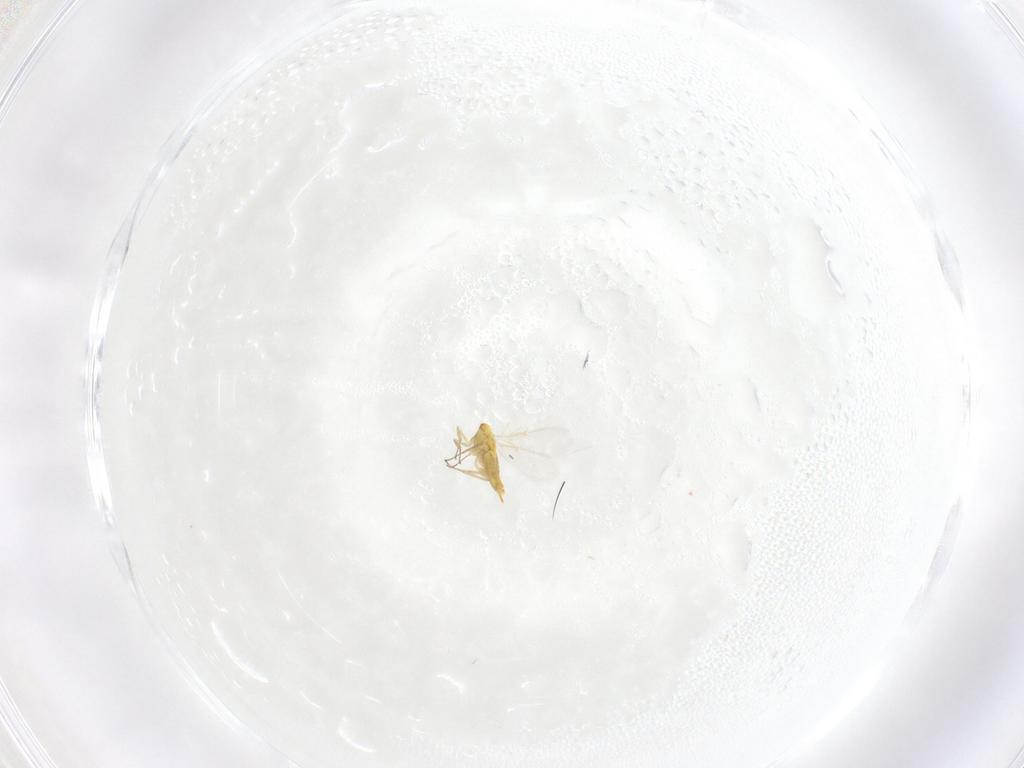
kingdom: Animalia
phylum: Arthropoda
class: Insecta
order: Hymenoptera
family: Aphelinidae
